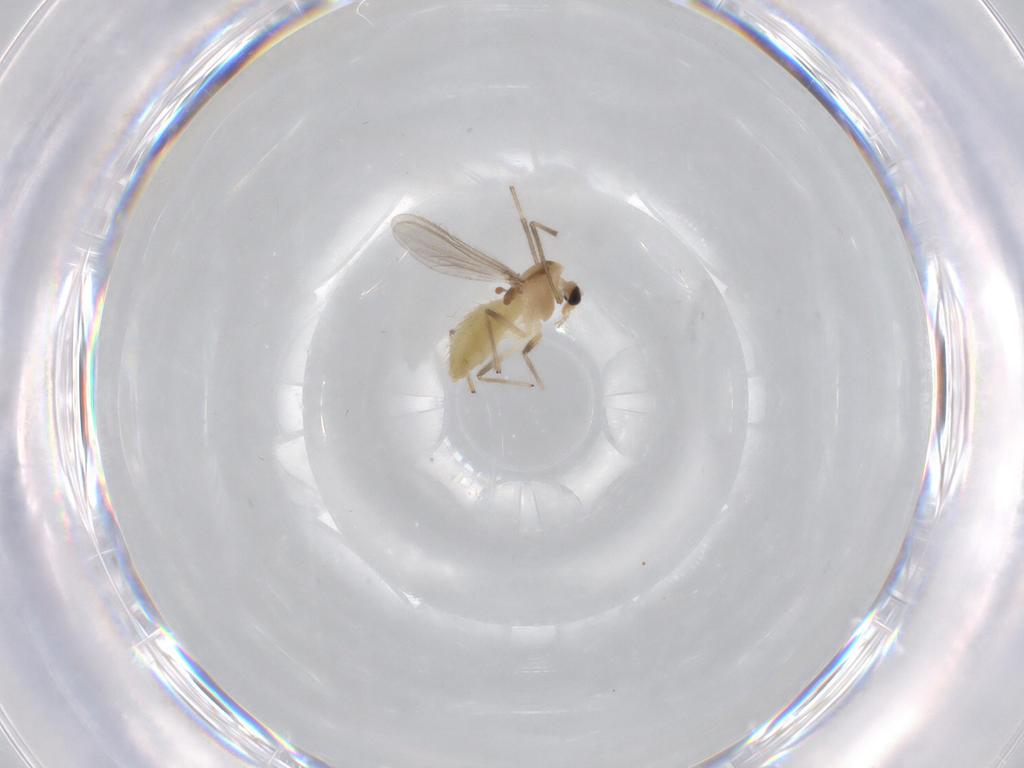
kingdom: Animalia
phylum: Arthropoda
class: Insecta
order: Diptera
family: Chironomidae
